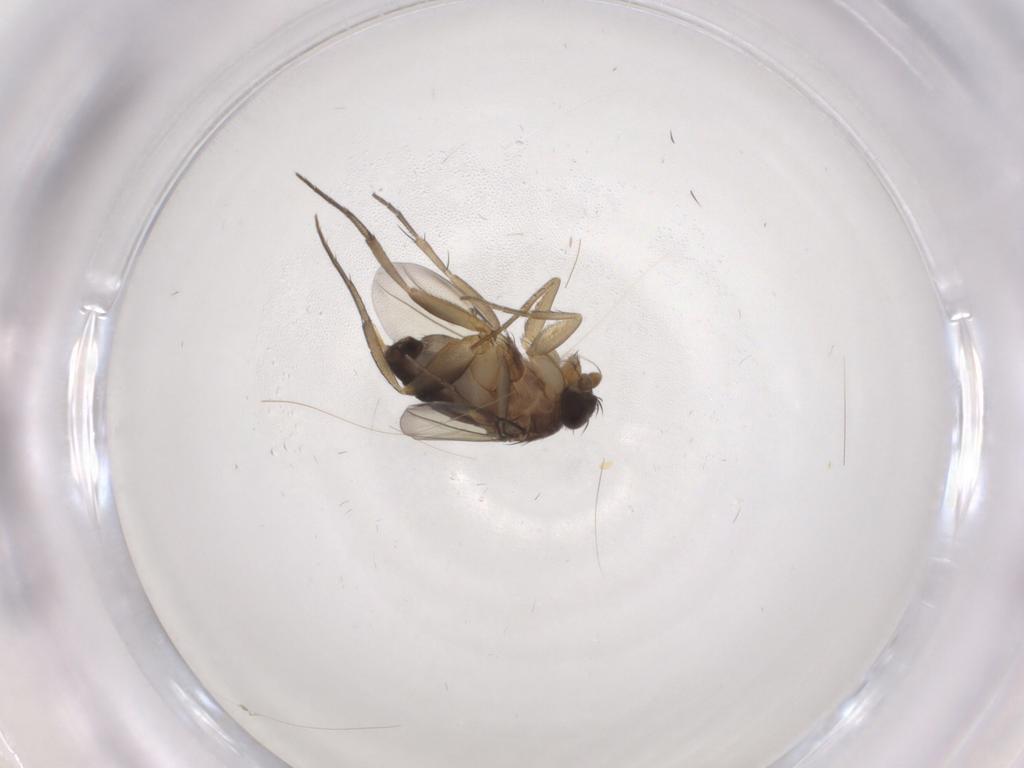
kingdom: Animalia
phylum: Arthropoda
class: Insecta
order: Diptera
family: Phoridae
